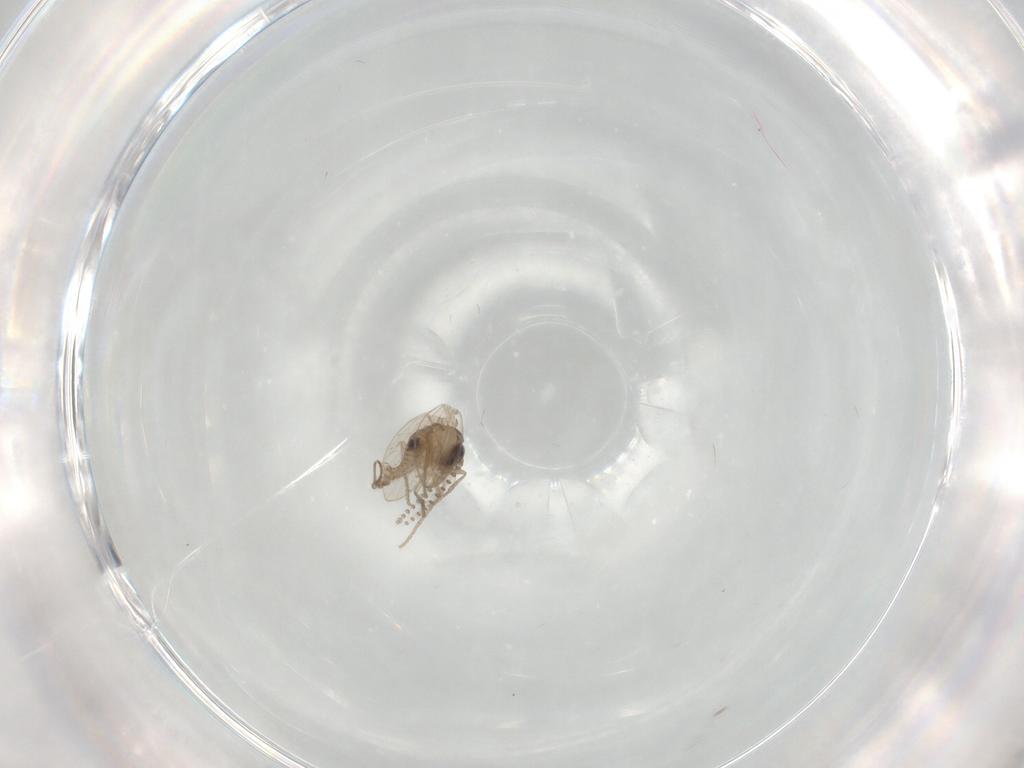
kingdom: Animalia
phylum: Arthropoda
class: Insecta
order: Diptera
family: Psychodidae
